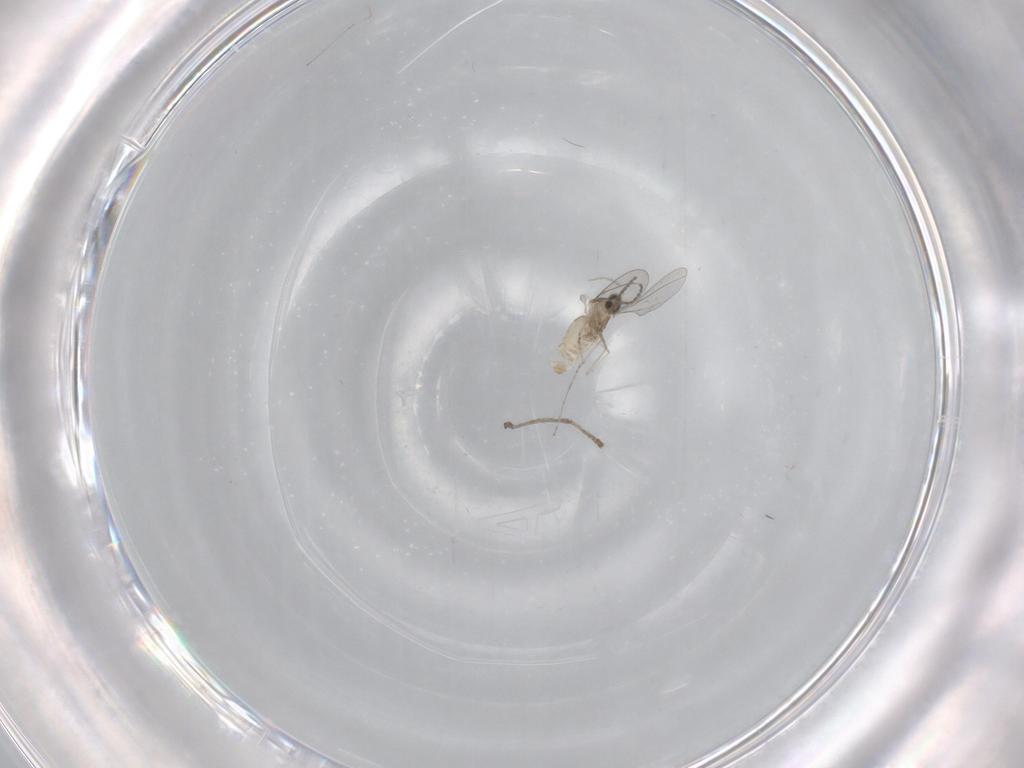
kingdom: Animalia
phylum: Arthropoda
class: Insecta
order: Diptera
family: Cecidomyiidae
